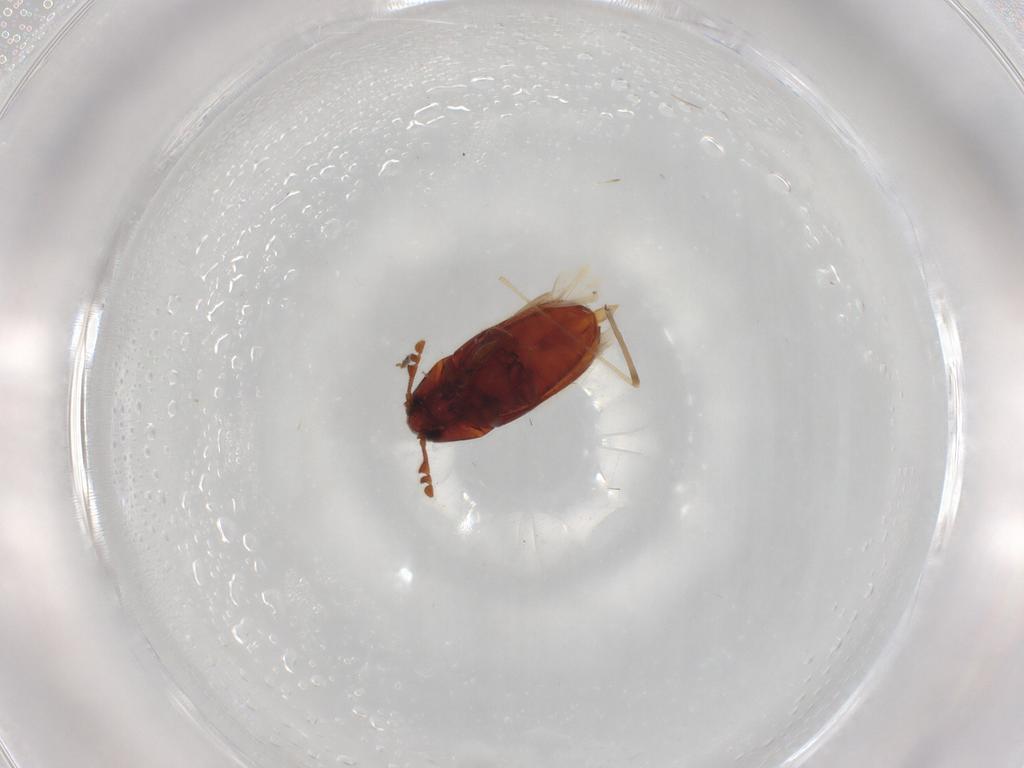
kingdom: Animalia
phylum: Arthropoda
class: Insecta
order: Coleoptera
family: Throscidae
